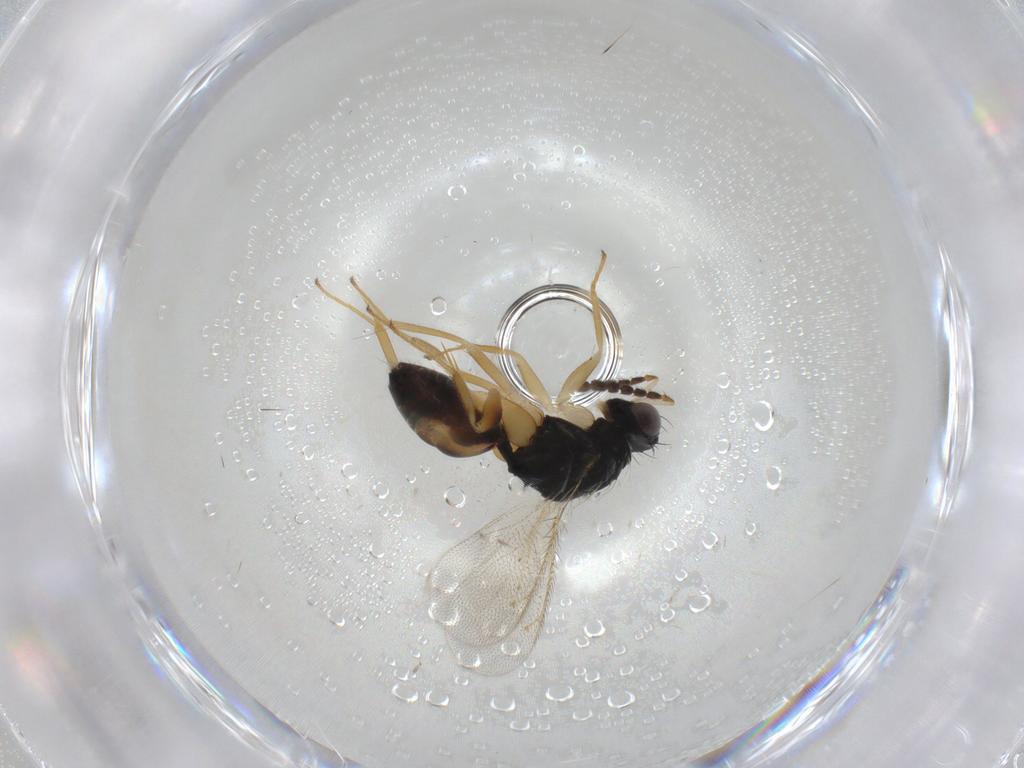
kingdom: Animalia
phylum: Arthropoda
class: Insecta
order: Hymenoptera
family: Eulophidae
